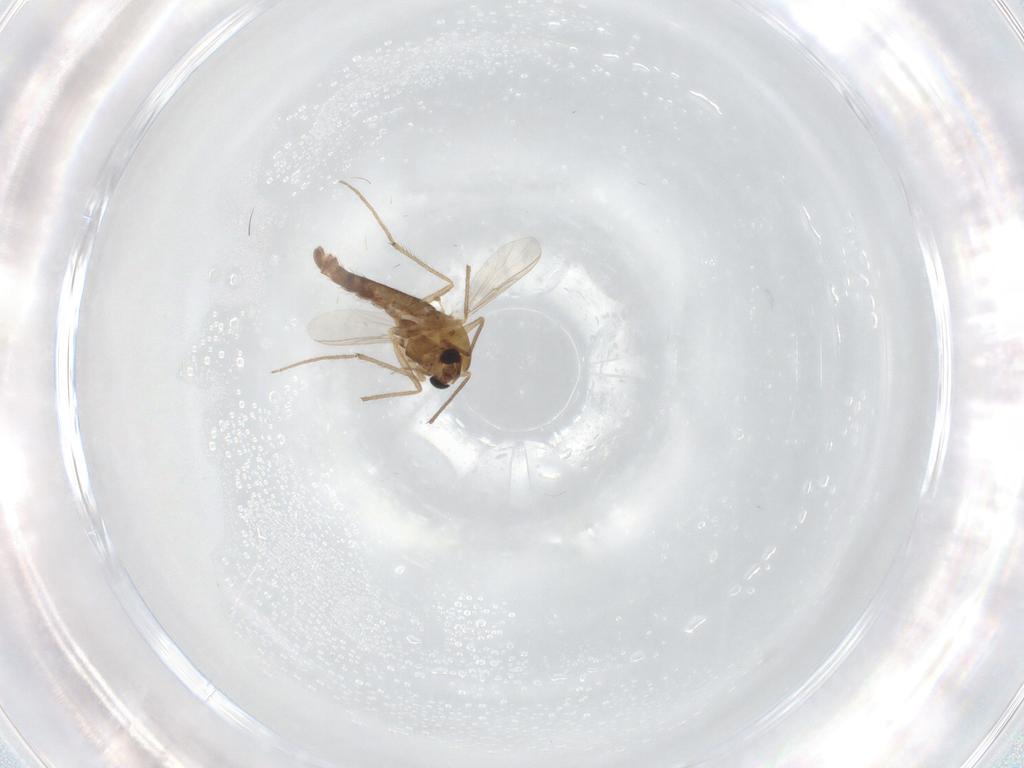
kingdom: Animalia
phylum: Arthropoda
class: Insecta
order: Diptera
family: Chironomidae
